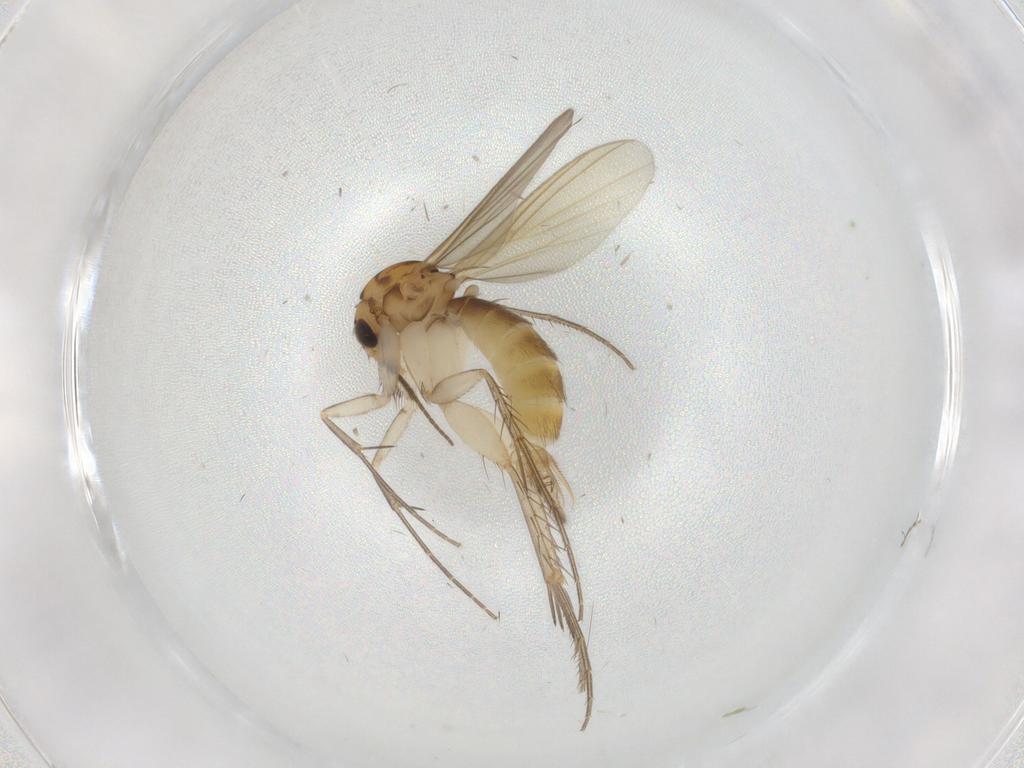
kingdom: Animalia
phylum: Arthropoda
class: Insecta
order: Diptera
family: Mycetophilidae
